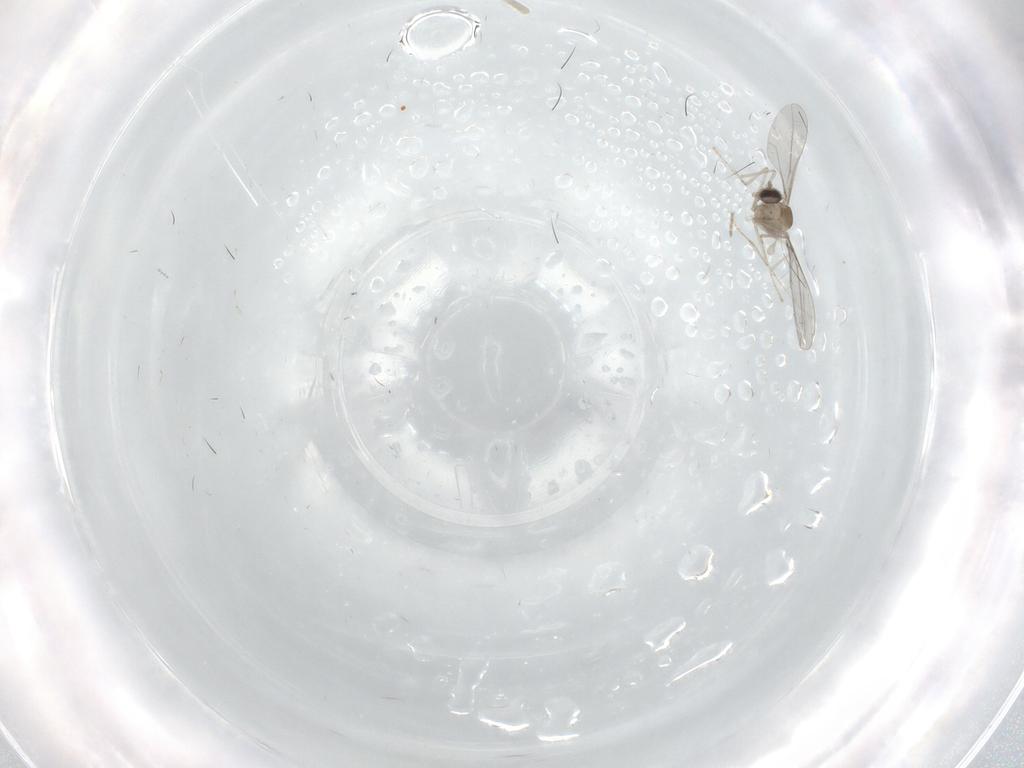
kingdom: Animalia
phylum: Arthropoda
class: Insecta
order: Diptera
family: Cecidomyiidae
